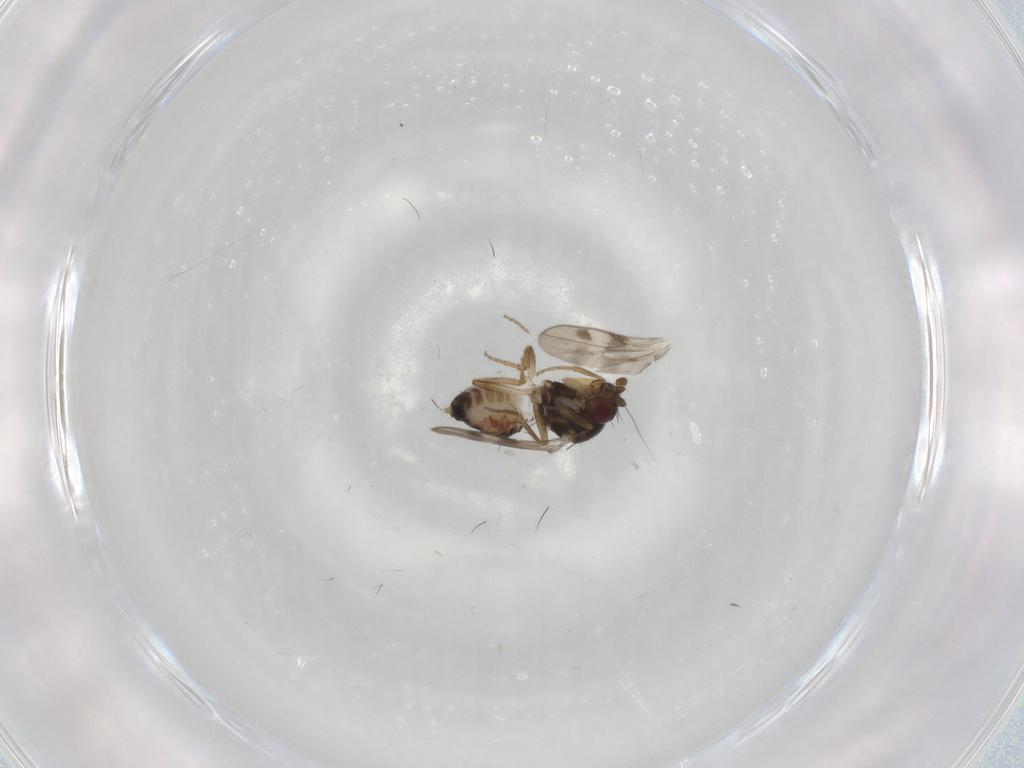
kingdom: Animalia
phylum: Arthropoda
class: Insecta
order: Diptera
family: Sphaeroceridae
